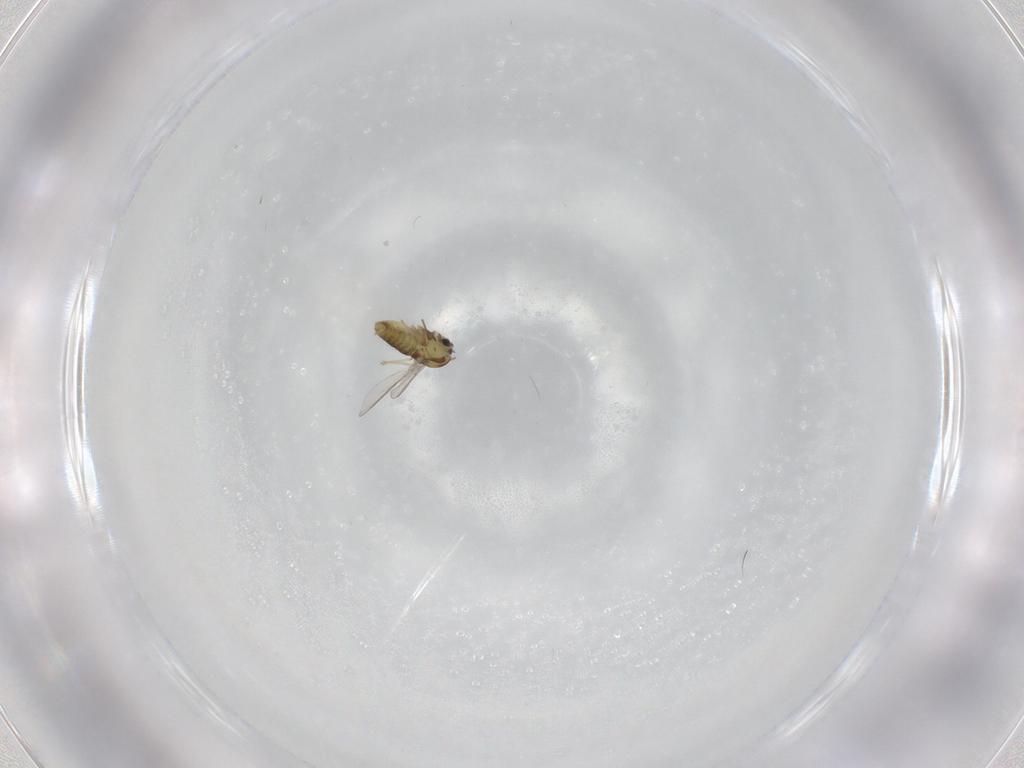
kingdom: Animalia
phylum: Arthropoda
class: Insecta
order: Diptera
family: Chironomidae
